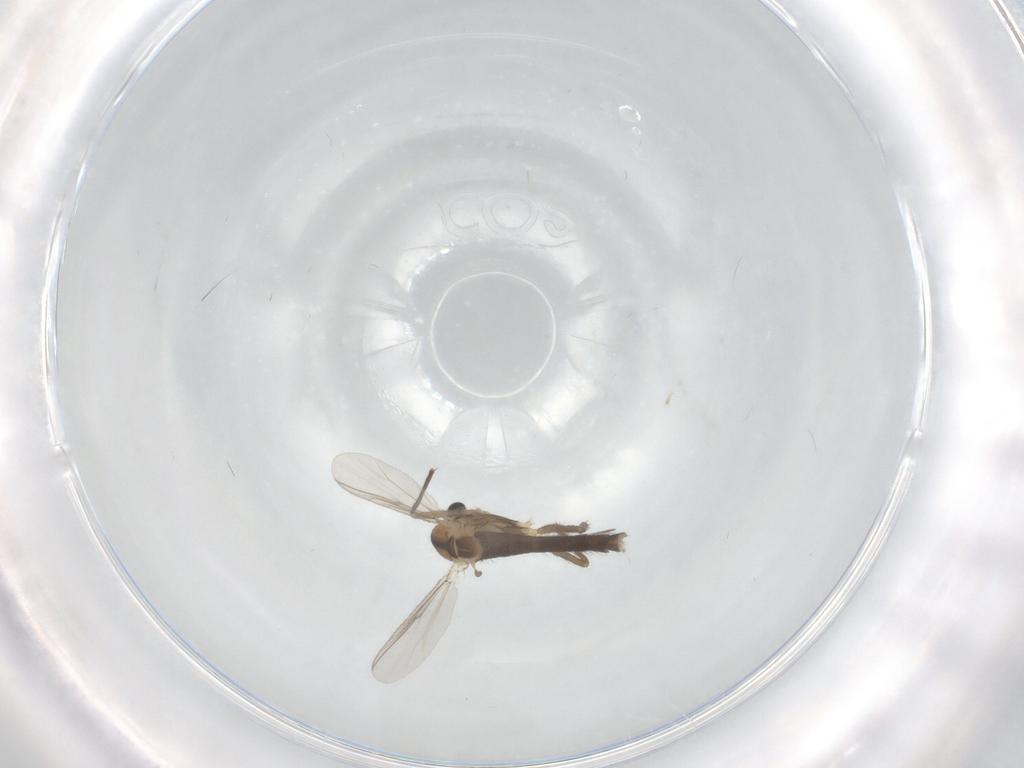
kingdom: Animalia
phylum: Arthropoda
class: Insecta
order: Diptera
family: Chironomidae
